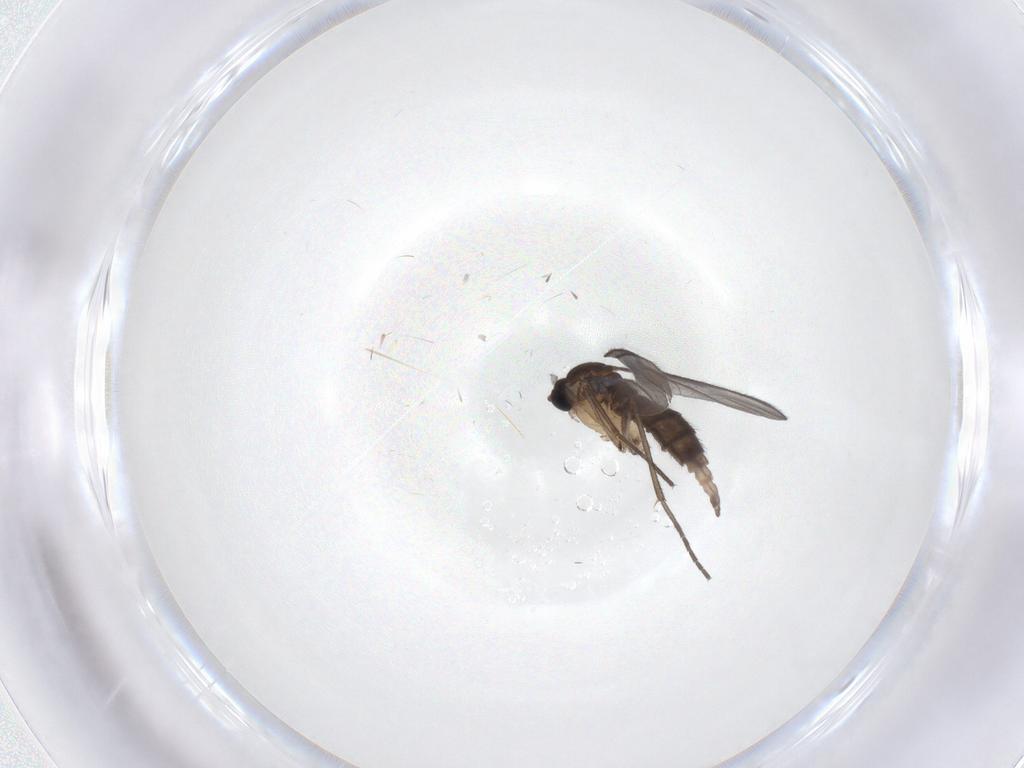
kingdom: Animalia
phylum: Arthropoda
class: Insecta
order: Diptera
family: Sciaridae
